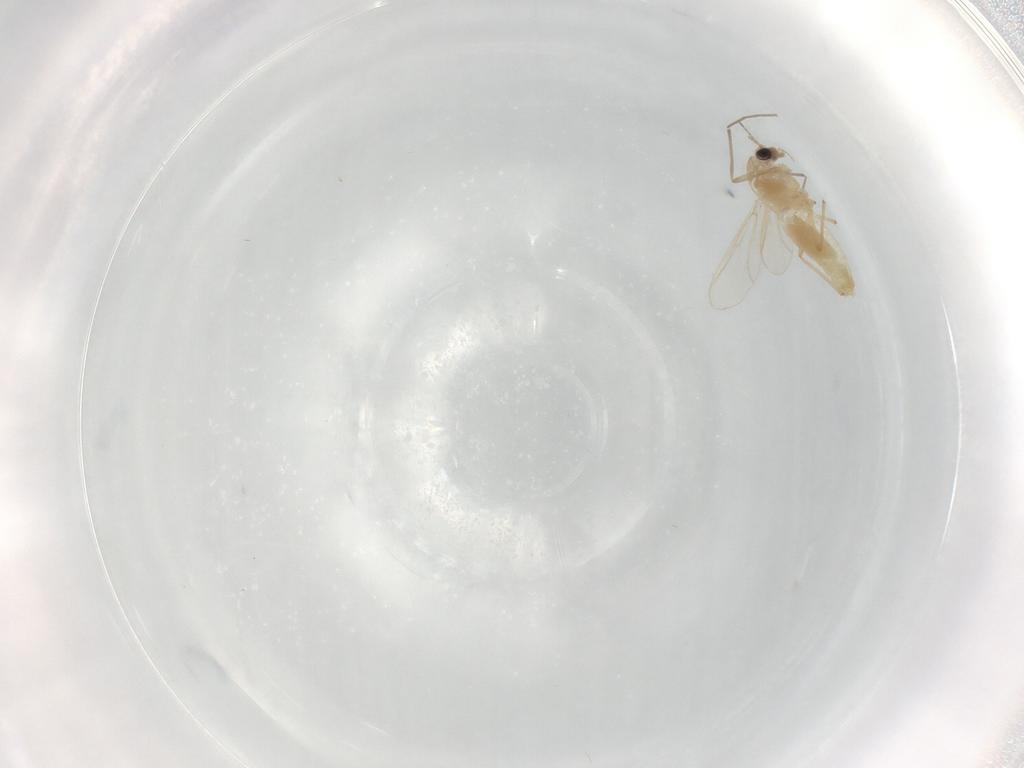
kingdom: Animalia
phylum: Arthropoda
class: Insecta
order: Diptera
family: Chironomidae
